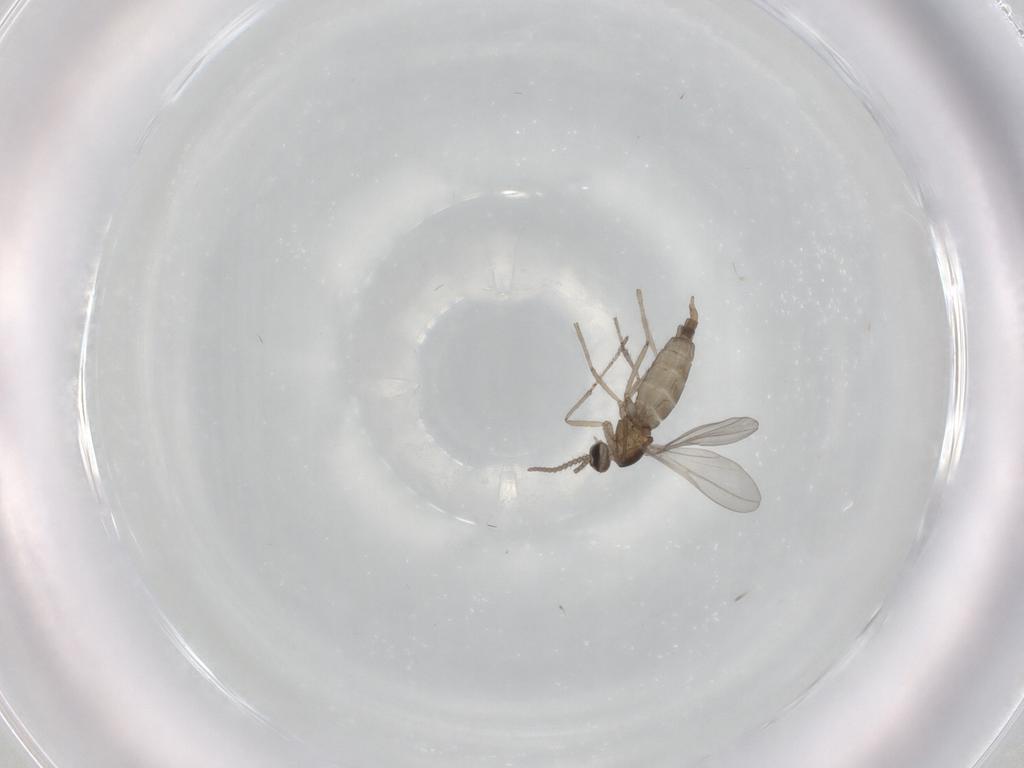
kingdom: Animalia
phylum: Arthropoda
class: Insecta
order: Diptera
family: Cecidomyiidae
